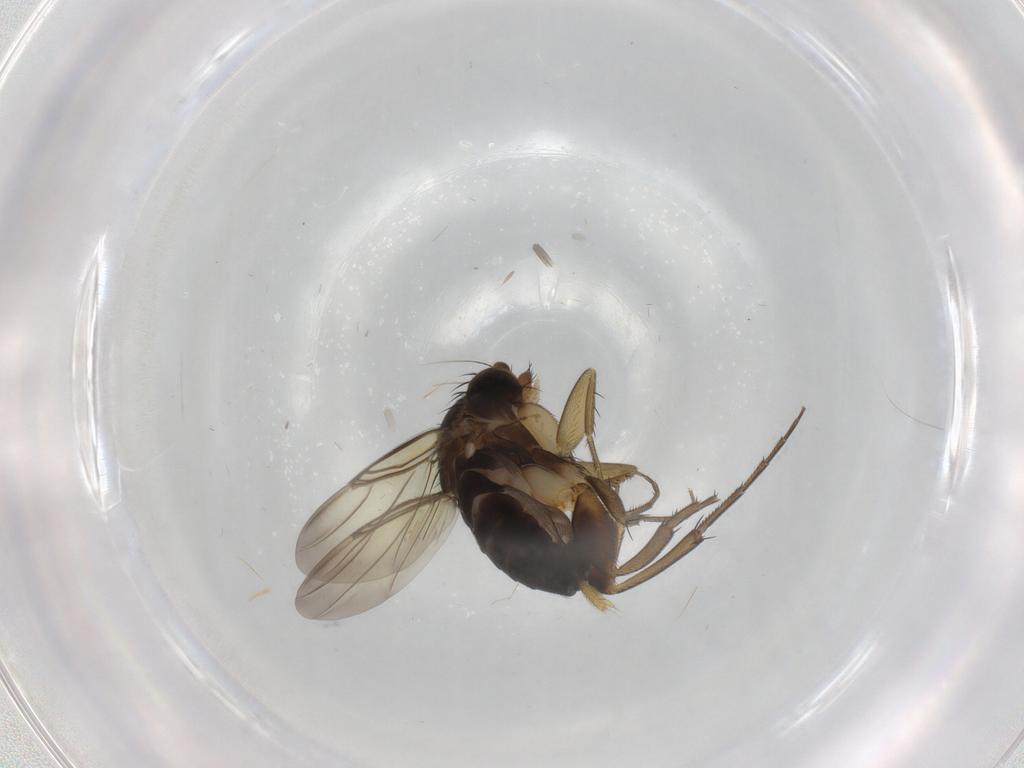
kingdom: Animalia
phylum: Arthropoda
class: Insecta
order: Diptera
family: Phoridae
